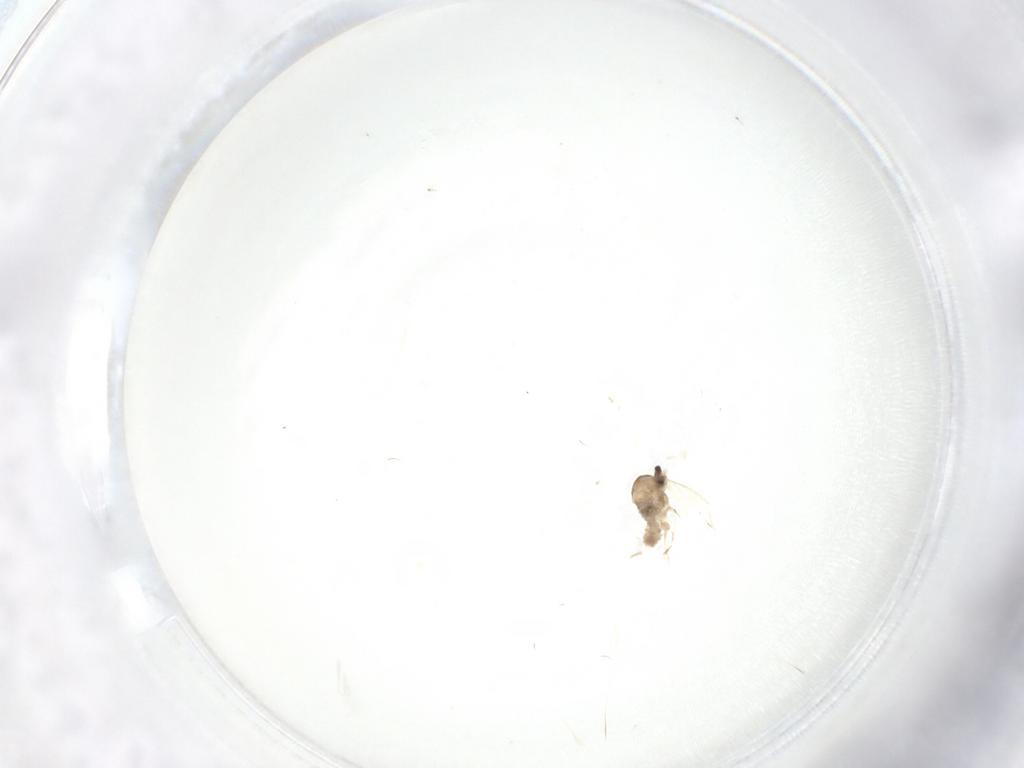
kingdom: Animalia
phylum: Arthropoda
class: Insecta
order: Diptera
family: Cecidomyiidae
